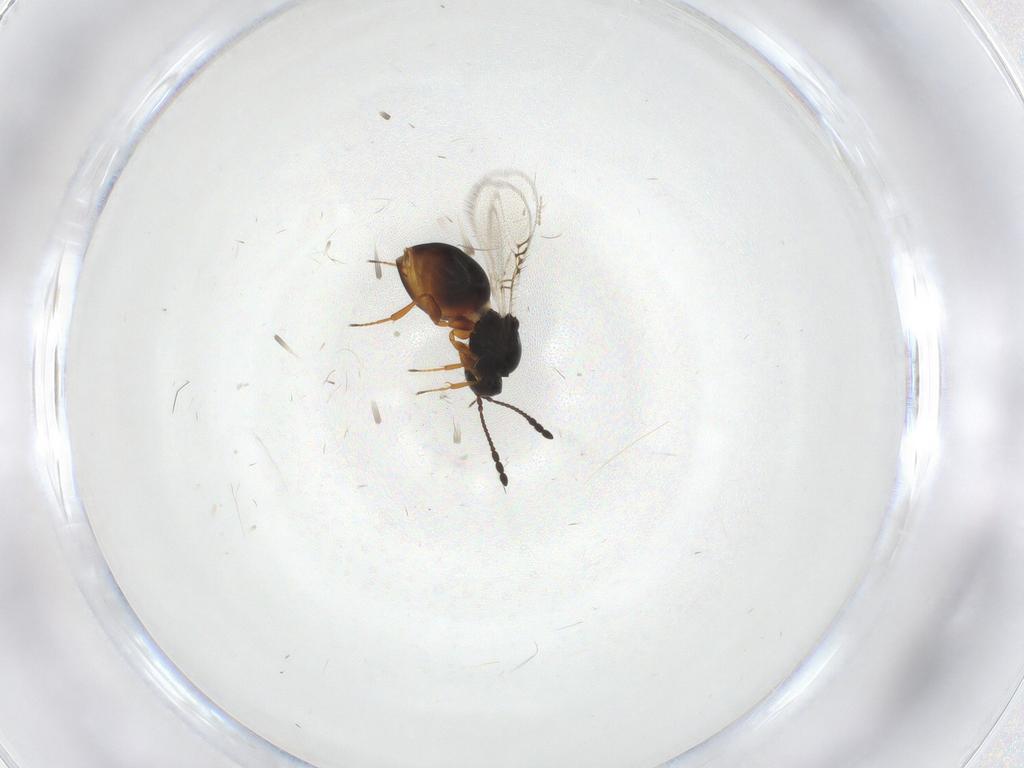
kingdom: Animalia
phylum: Arthropoda
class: Insecta
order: Hymenoptera
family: Figitidae
